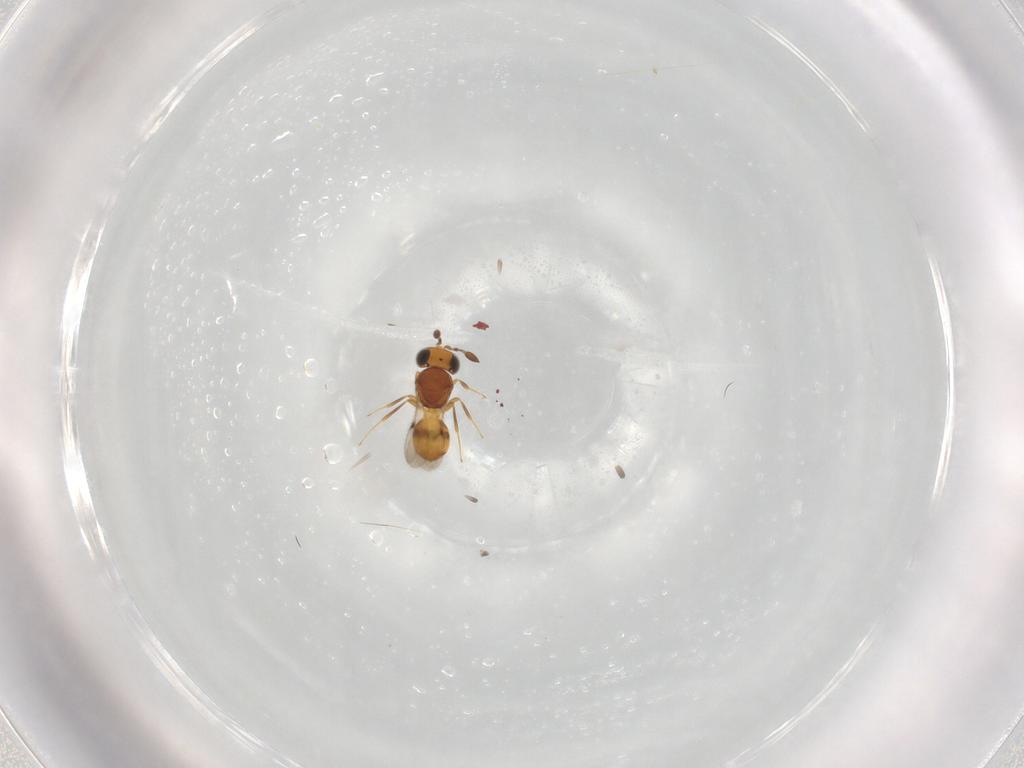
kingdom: Animalia
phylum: Arthropoda
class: Insecta
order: Hymenoptera
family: Scelionidae
